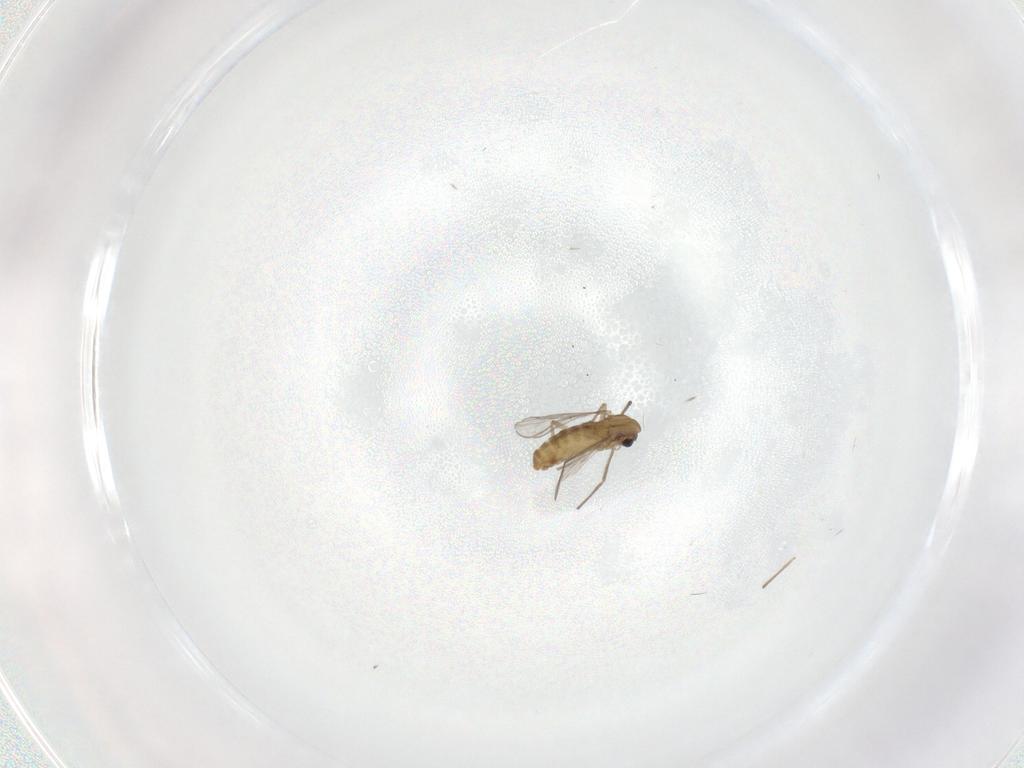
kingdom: Animalia
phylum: Arthropoda
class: Insecta
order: Diptera
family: Chironomidae
